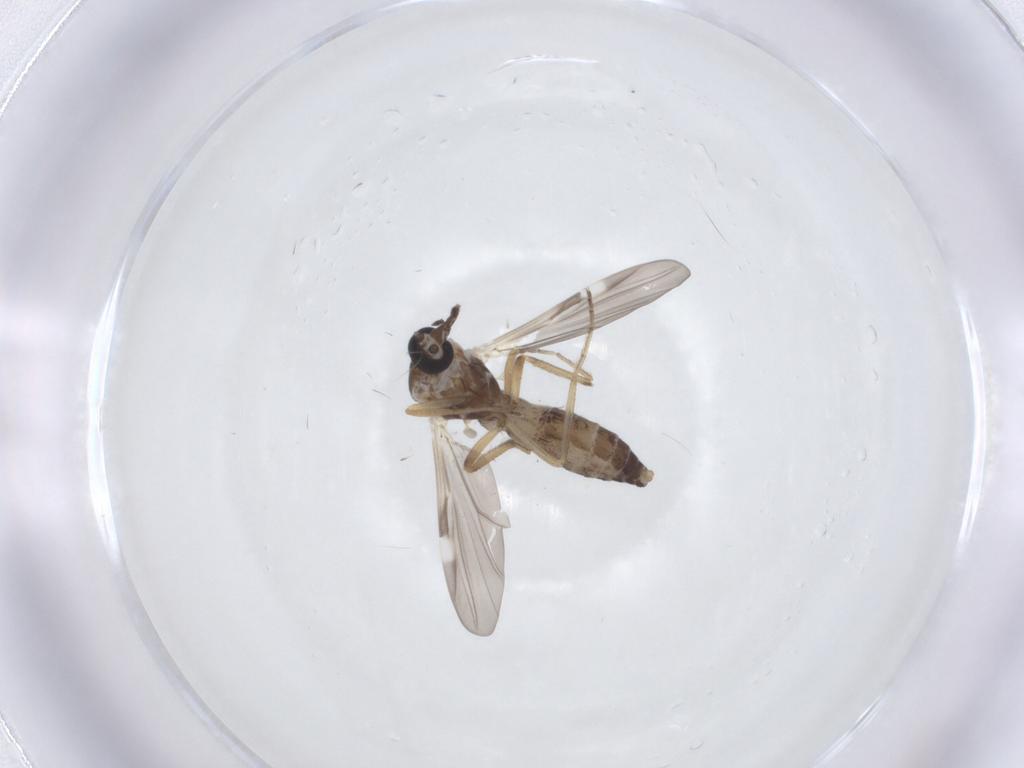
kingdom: Animalia
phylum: Arthropoda
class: Insecta
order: Diptera
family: Ceratopogonidae
